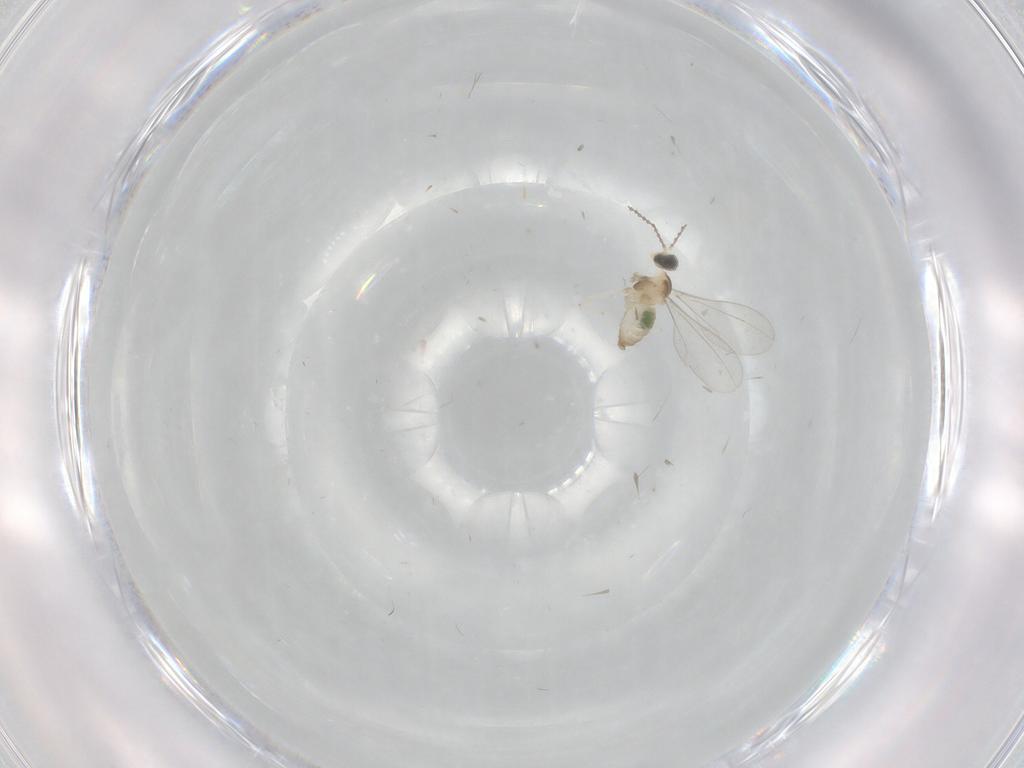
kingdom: Animalia
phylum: Arthropoda
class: Insecta
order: Diptera
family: Cecidomyiidae
